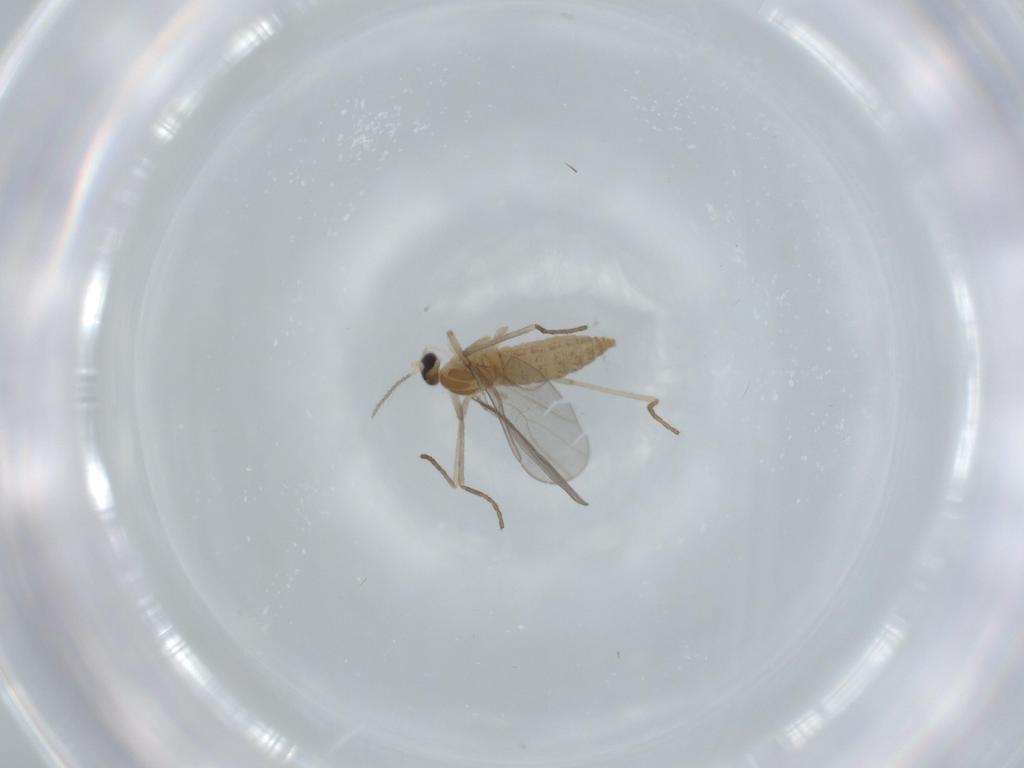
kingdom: Animalia
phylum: Arthropoda
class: Insecta
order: Diptera
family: Cecidomyiidae
